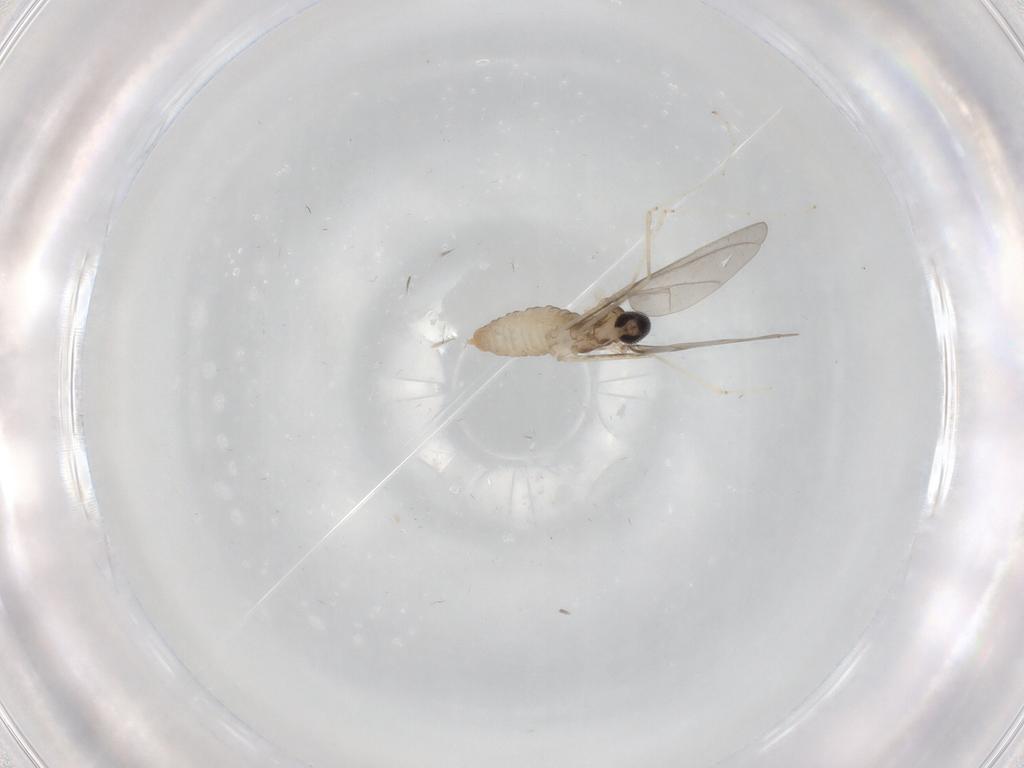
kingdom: Animalia
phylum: Arthropoda
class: Insecta
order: Diptera
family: Cecidomyiidae
